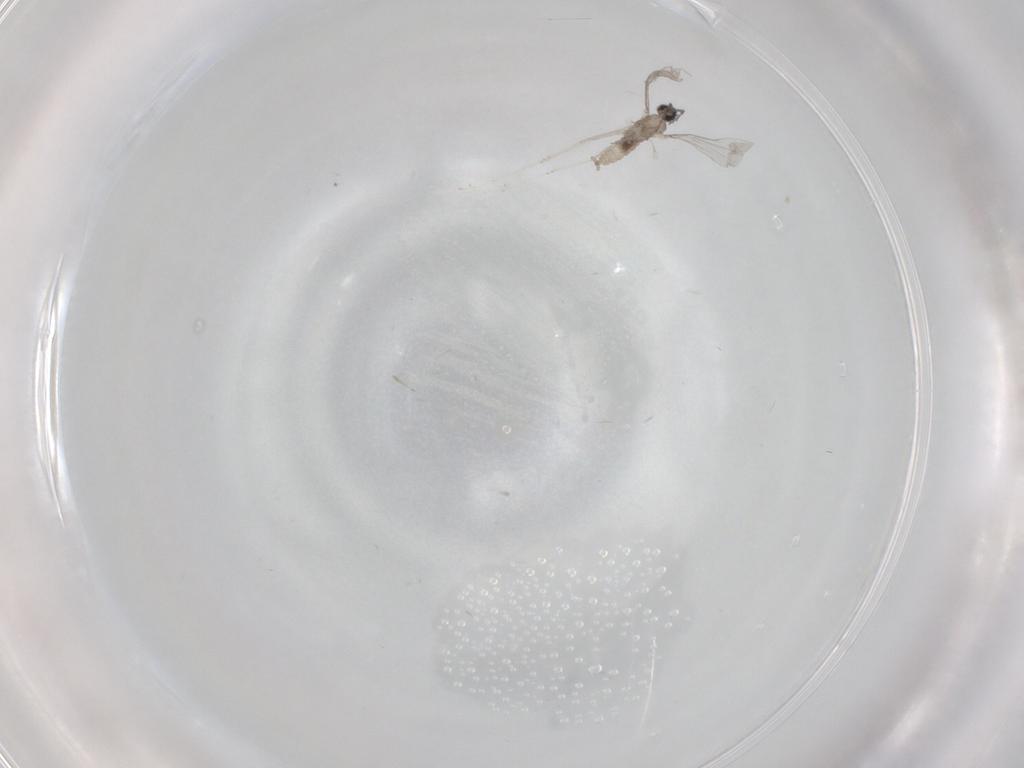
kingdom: Animalia
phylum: Arthropoda
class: Insecta
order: Diptera
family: Cecidomyiidae
